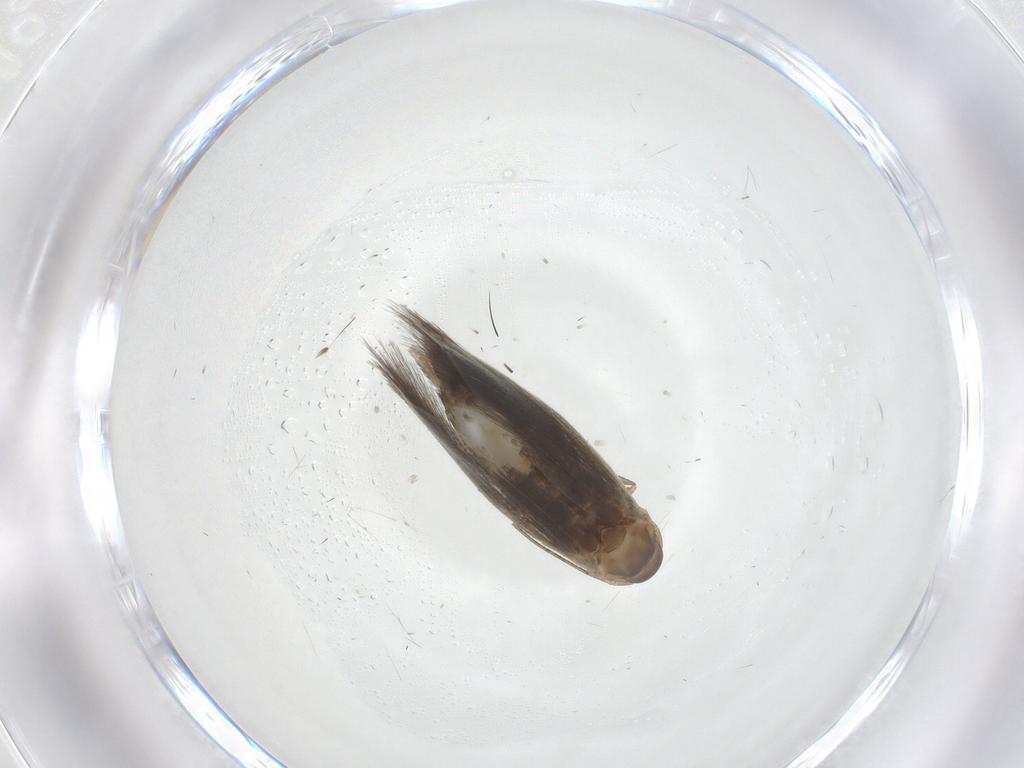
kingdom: Animalia
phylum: Arthropoda
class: Insecta
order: Lepidoptera
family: Elachistidae
